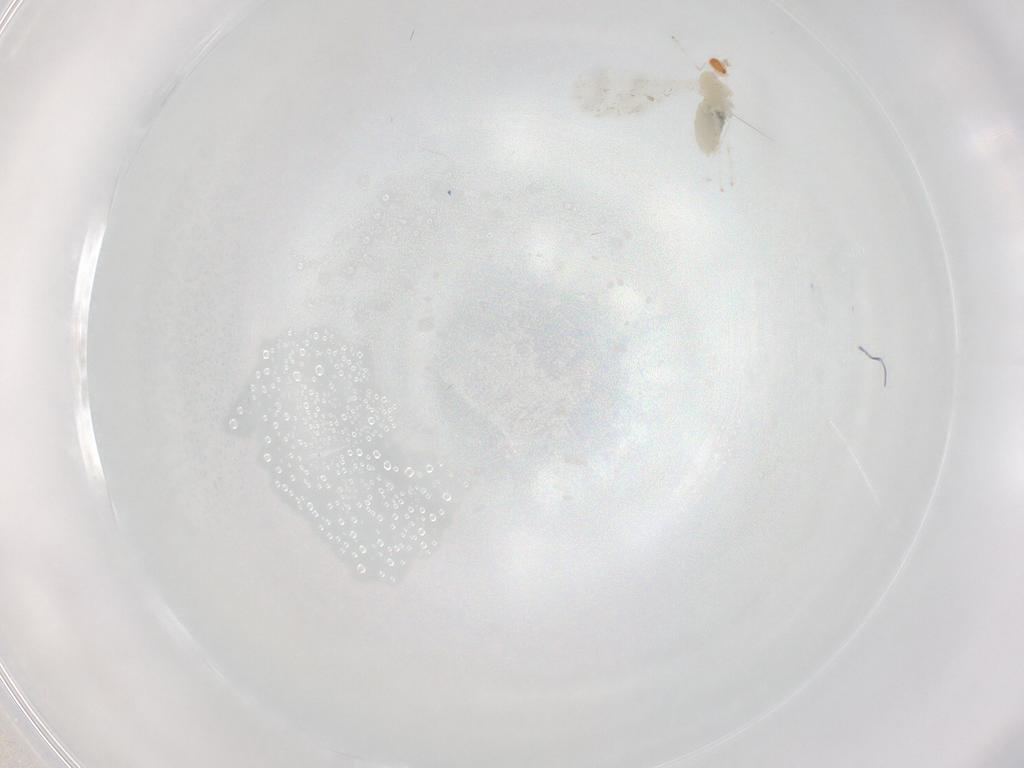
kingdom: Animalia
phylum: Arthropoda
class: Insecta
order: Diptera
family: Cecidomyiidae
